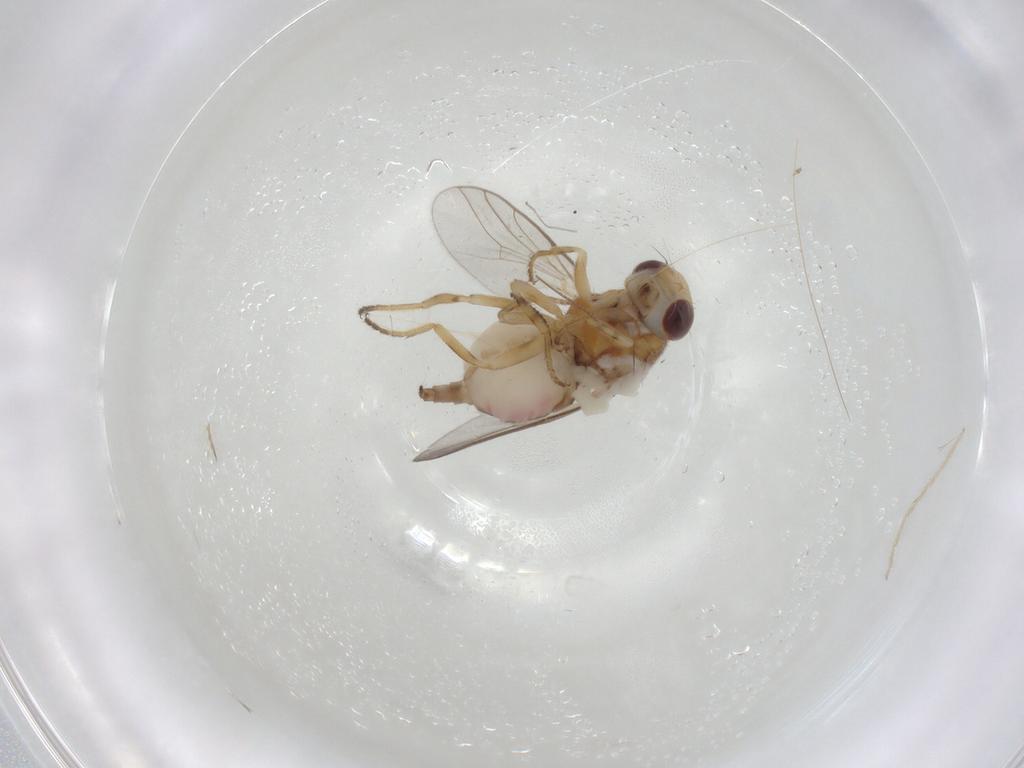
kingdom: Animalia
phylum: Arthropoda
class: Insecta
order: Diptera
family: Chloropidae
